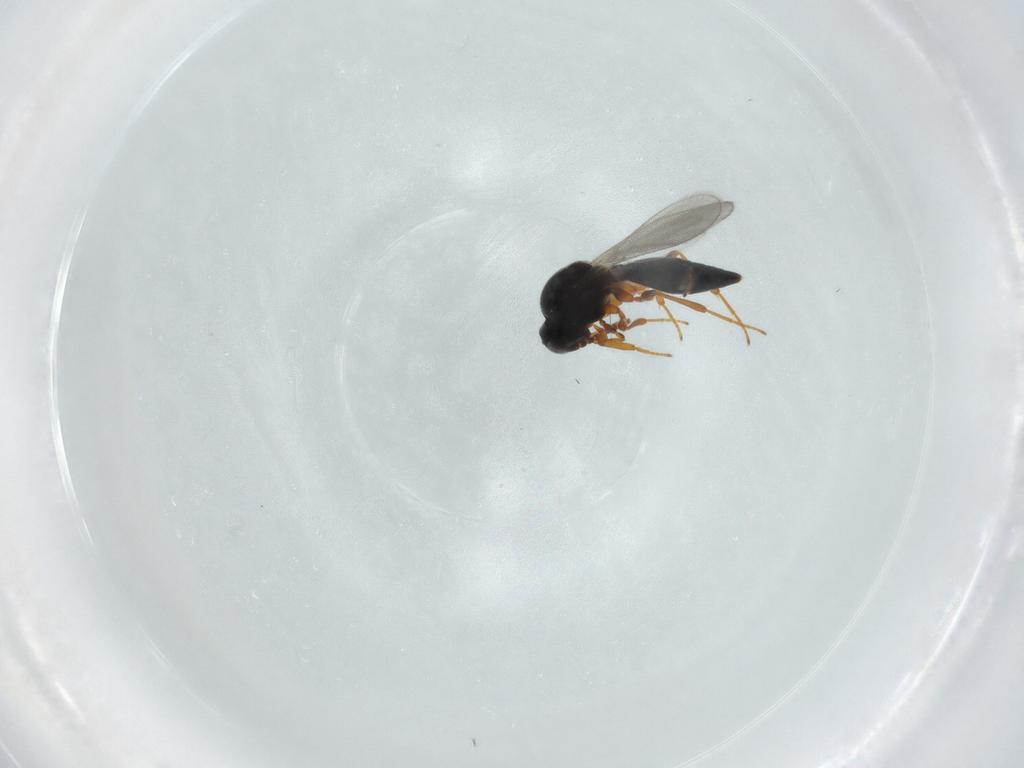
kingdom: Animalia
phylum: Arthropoda
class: Insecta
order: Hymenoptera
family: Platygastridae
